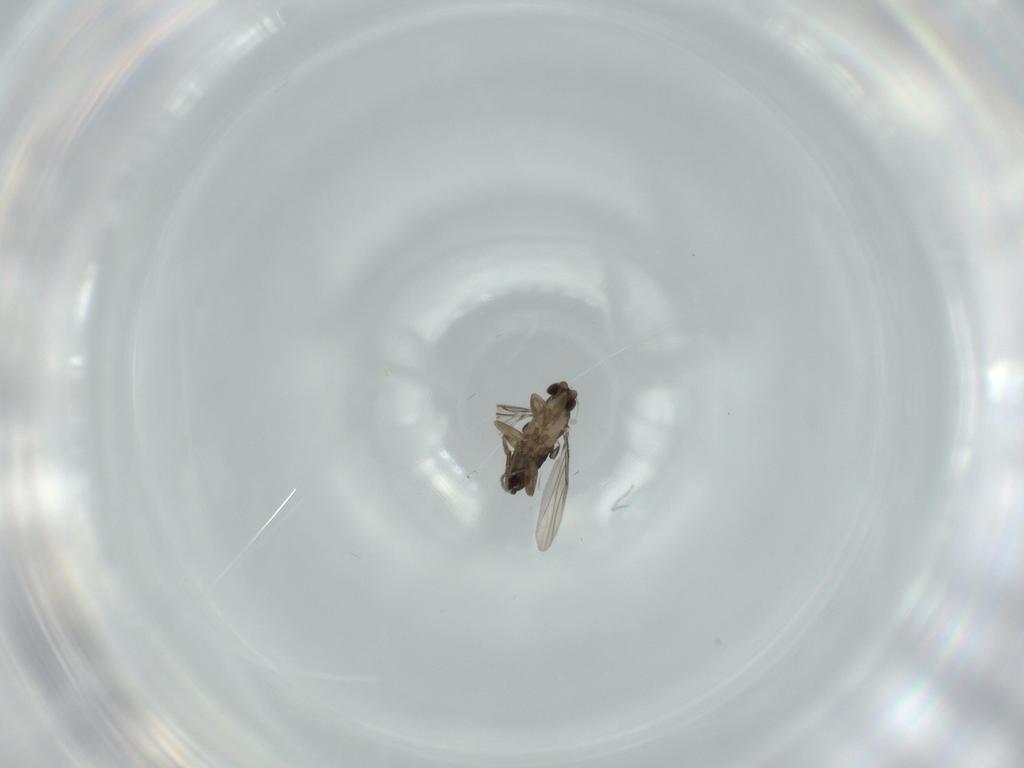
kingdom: Animalia
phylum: Arthropoda
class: Insecta
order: Diptera
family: Phoridae
